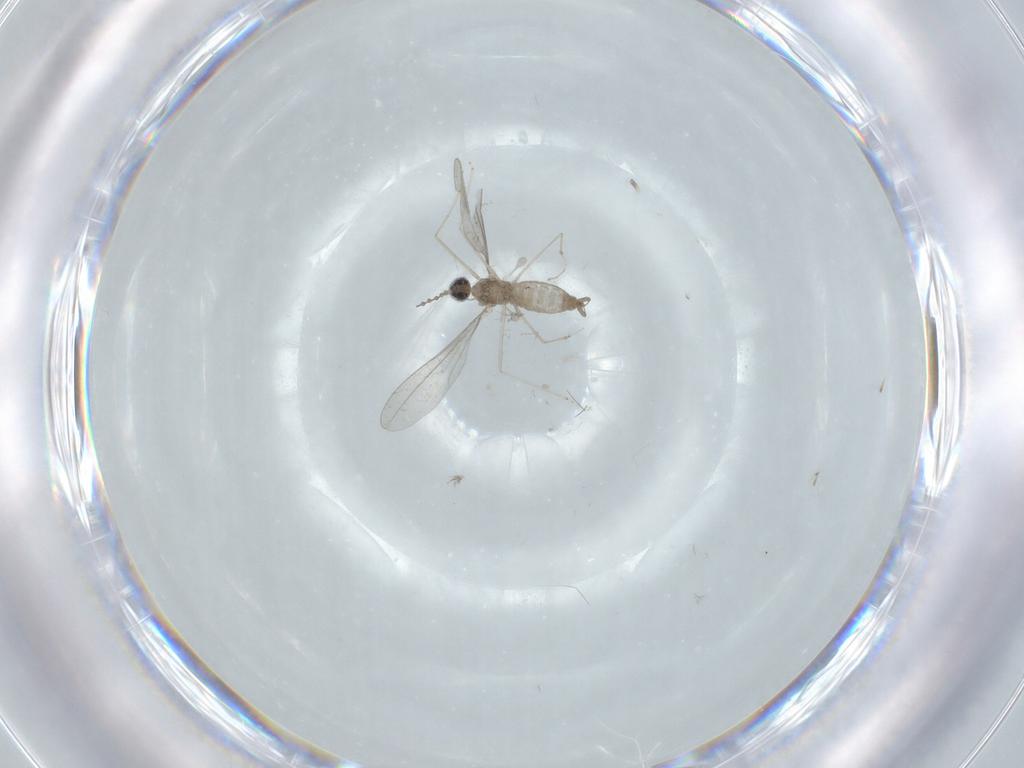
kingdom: Animalia
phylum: Arthropoda
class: Insecta
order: Diptera
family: Cecidomyiidae
